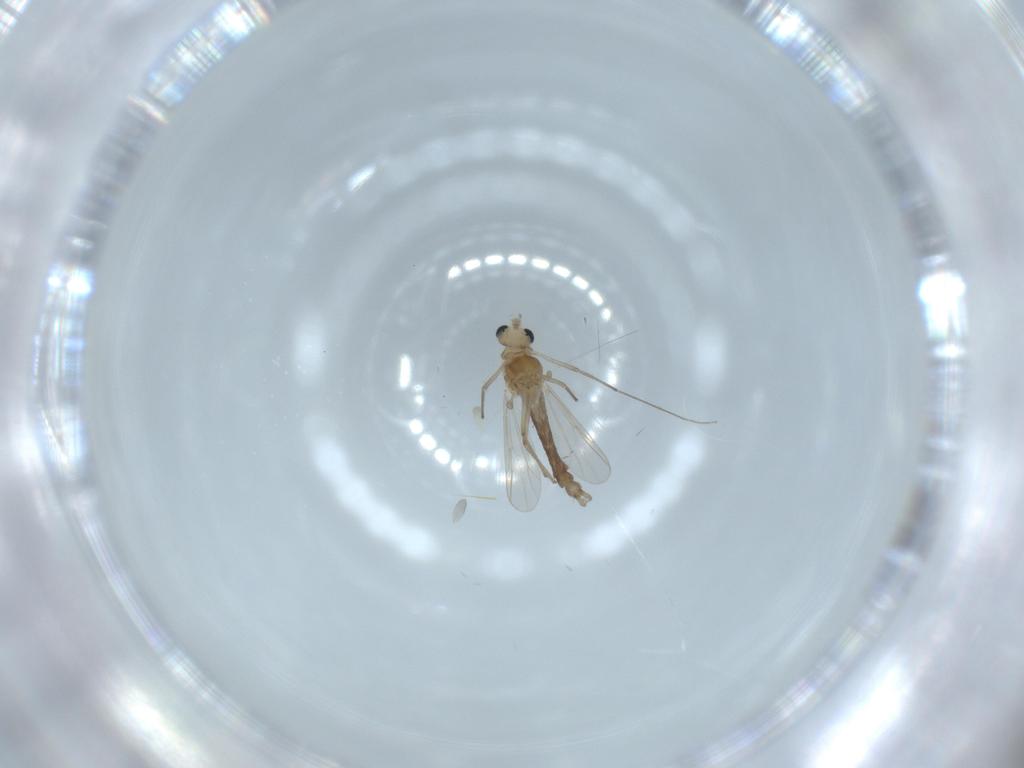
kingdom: Animalia
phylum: Arthropoda
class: Insecta
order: Diptera
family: Chironomidae
